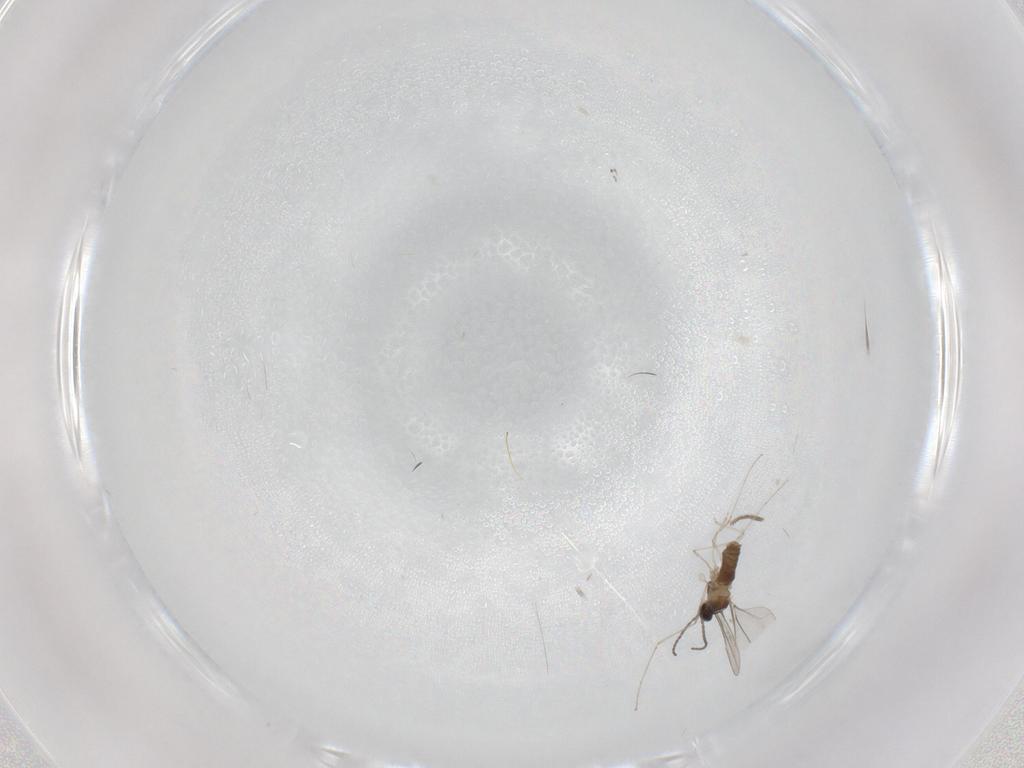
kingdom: Animalia
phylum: Arthropoda
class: Insecta
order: Diptera
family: Cecidomyiidae
